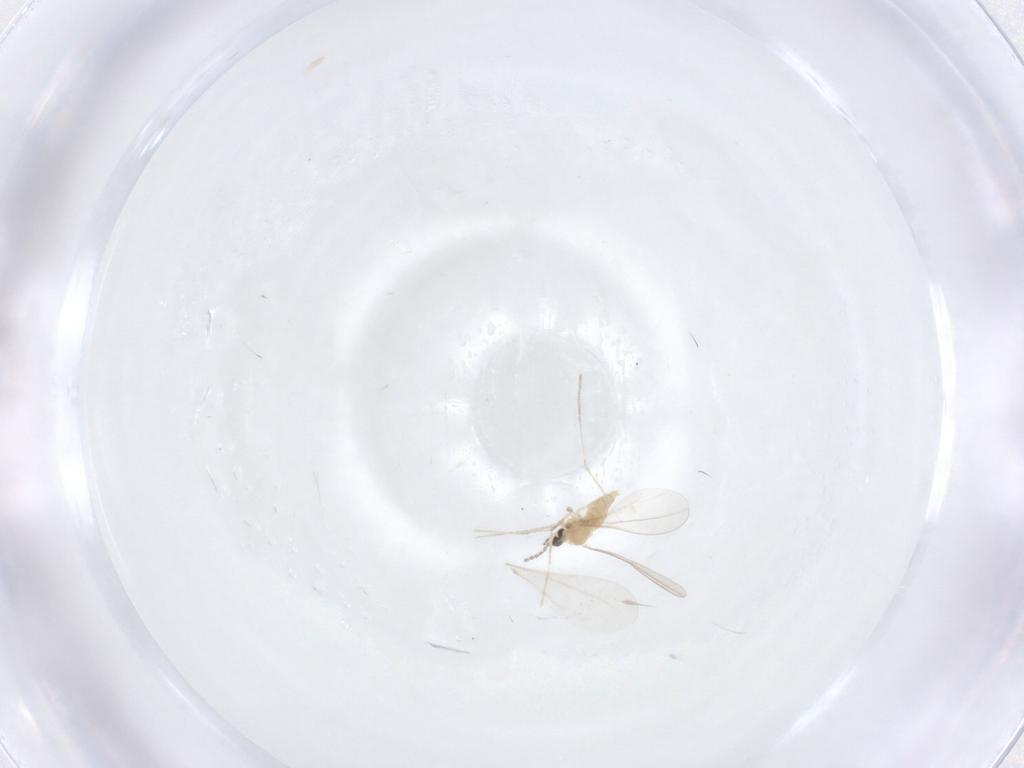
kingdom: Animalia
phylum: Arthropoda
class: Insecta
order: Diptera
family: Cecidomyiidae
